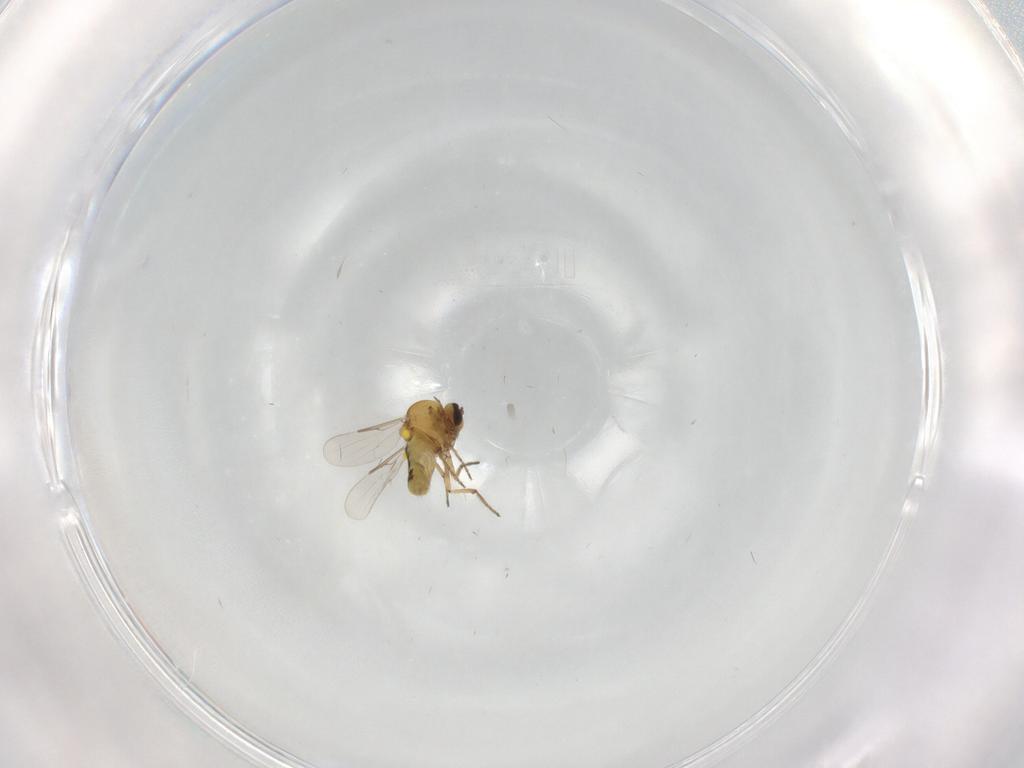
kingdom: Animalia
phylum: Arthropoda
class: Insecta
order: Diptera
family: Ceratopogonidae
